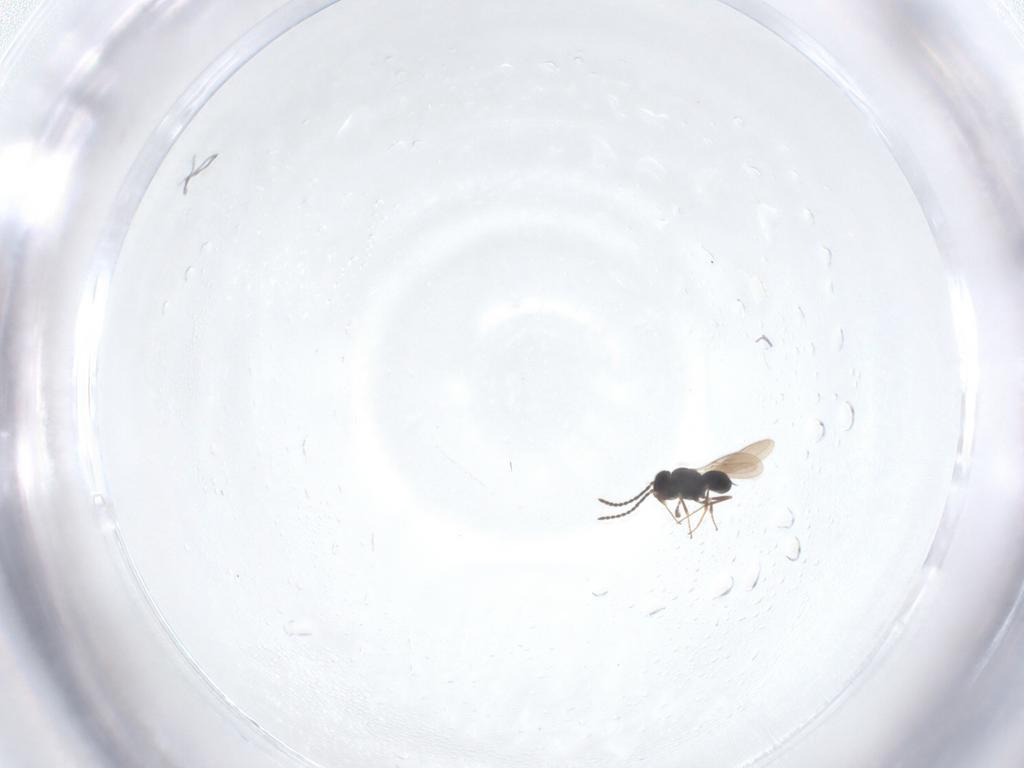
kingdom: Animalia
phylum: Arthropoda
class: Insecta
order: Hymenoptera
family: Scelionidae
